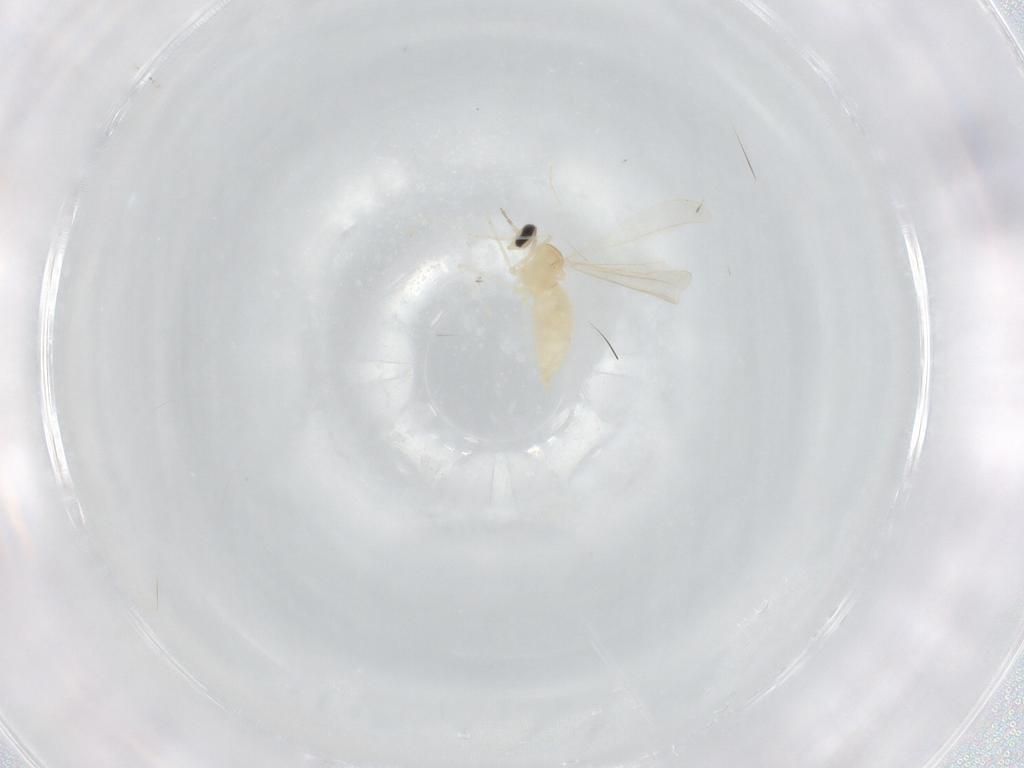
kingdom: Animalia
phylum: Arthropoda
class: Insecta
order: Diptera
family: Cecidomyiidae
